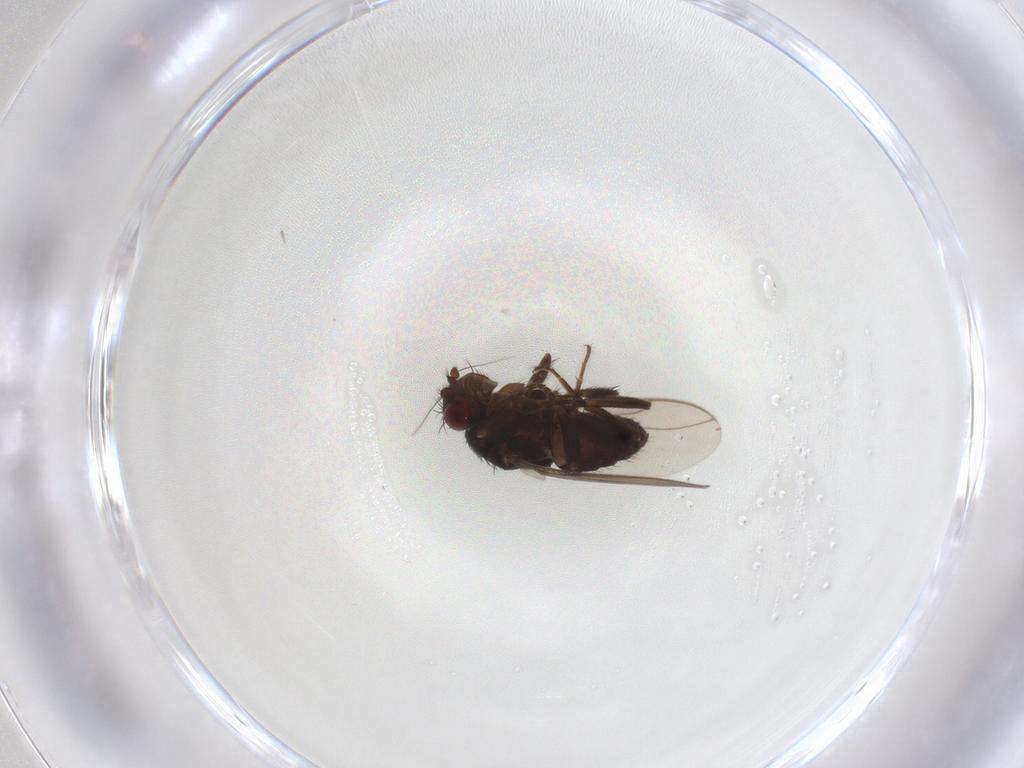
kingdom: Animalia
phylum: Arthropoda
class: Insecta
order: Diptera
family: Sphaeroceridae
